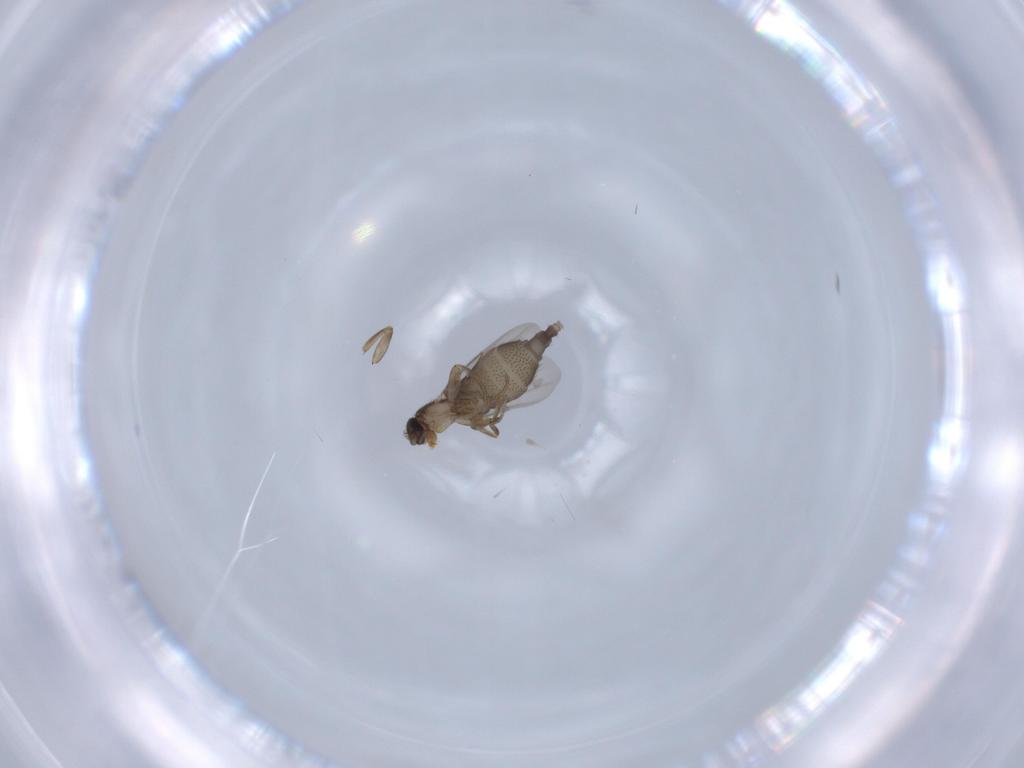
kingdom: Animalia
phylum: Arthropoda
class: Insecta
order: Diptera
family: Phoridae
